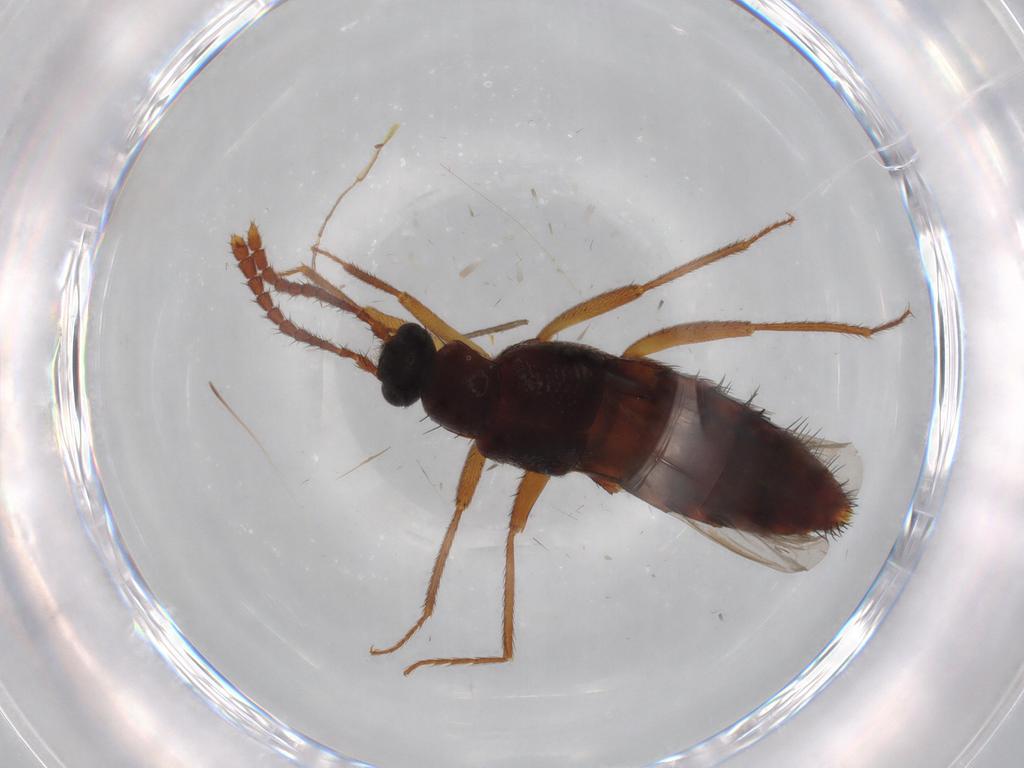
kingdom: Animalia
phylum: Arthropoda
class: Insecta
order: Coleoptera
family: Staphylinidae
